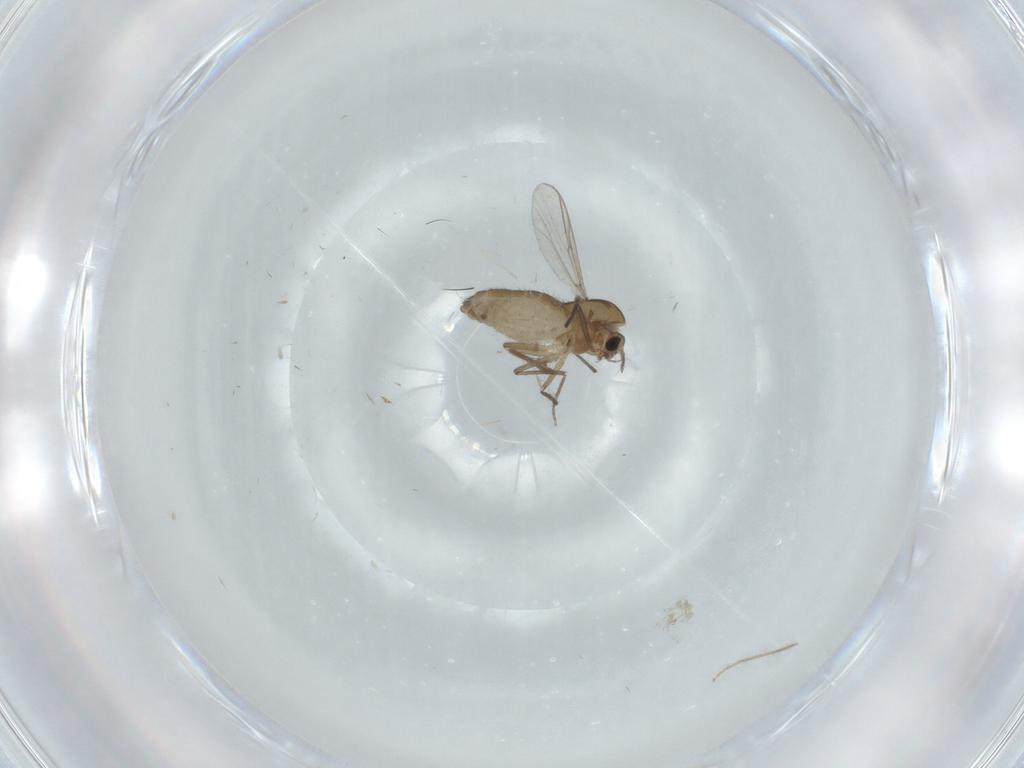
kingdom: Animalia
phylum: Arthropoda
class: Insecta
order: Diptera
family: Chironomidae
